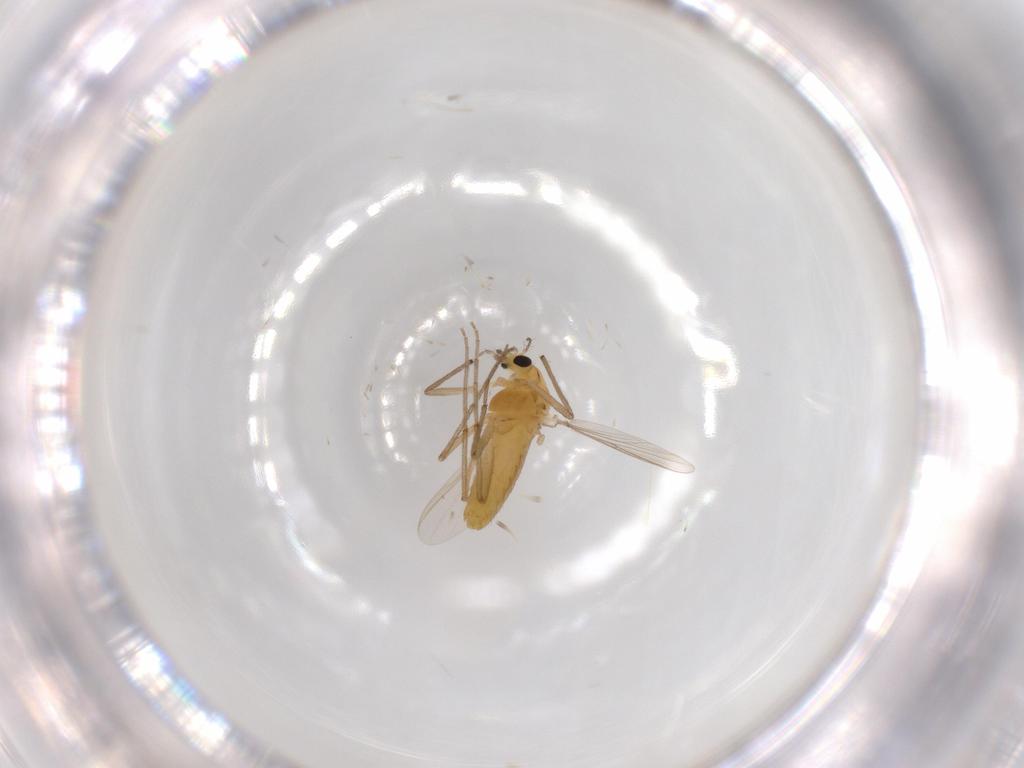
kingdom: Animalia
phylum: Arthropoda
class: Insecta
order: Diptera
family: Chironomidae
